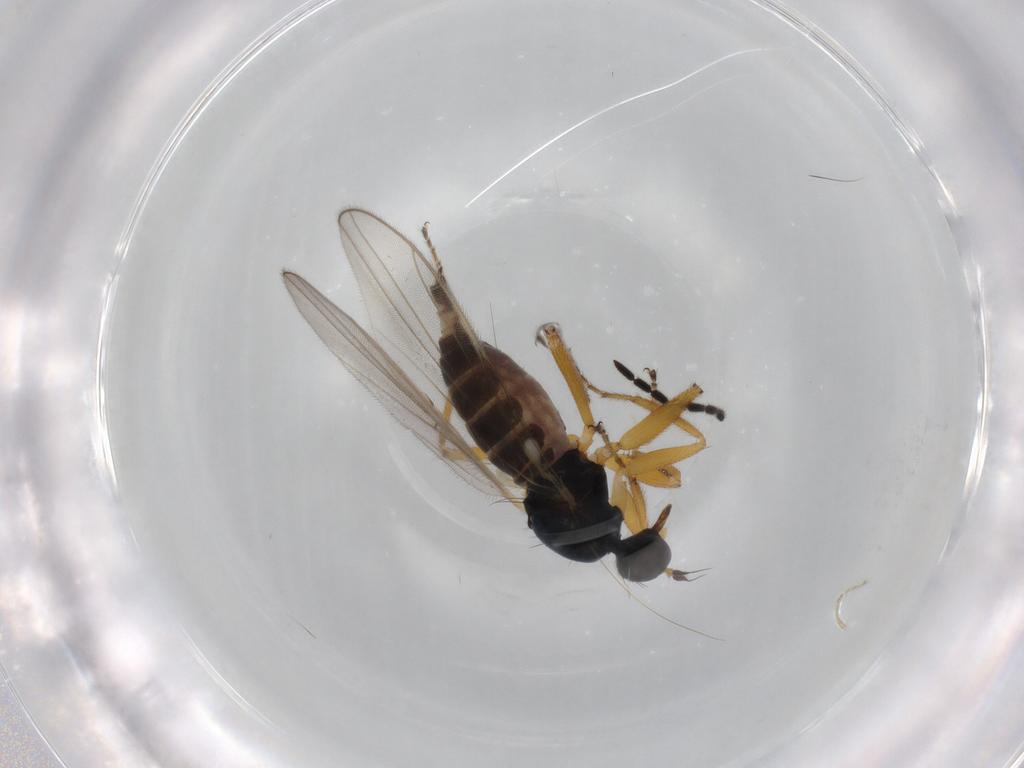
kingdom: Animalia
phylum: Arthropoda
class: Insecta
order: Diptera
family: Hybotidae
